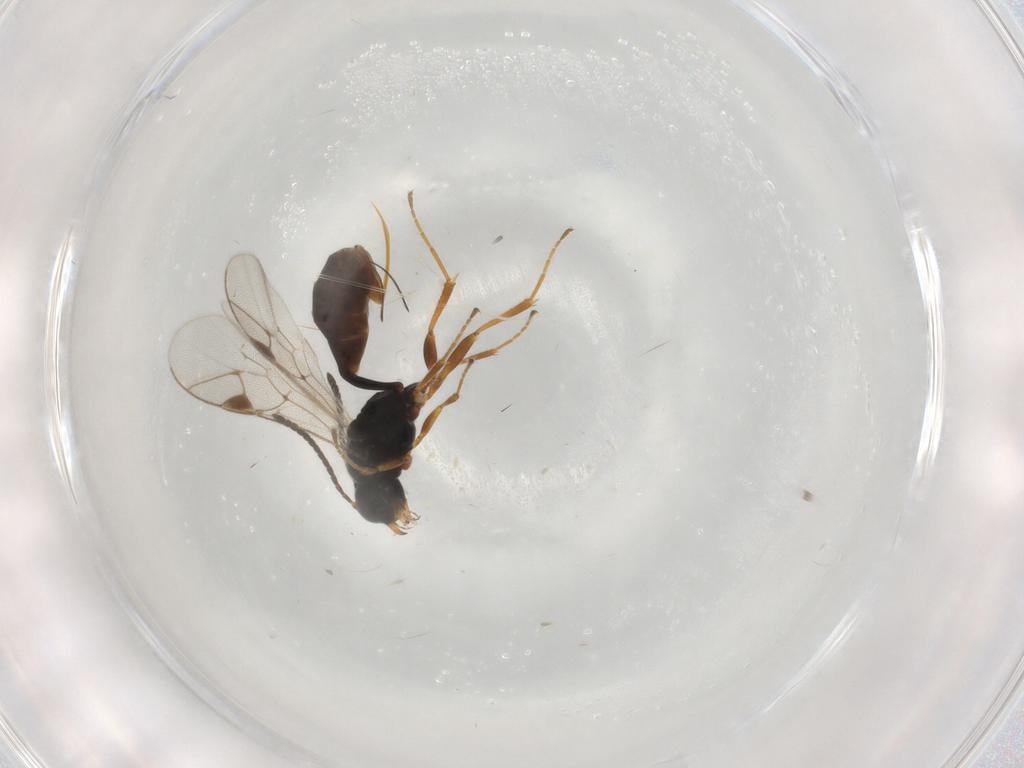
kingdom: Animalia
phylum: Arthropoda
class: Insecta
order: Hymenoptera
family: Ichneumonidae
